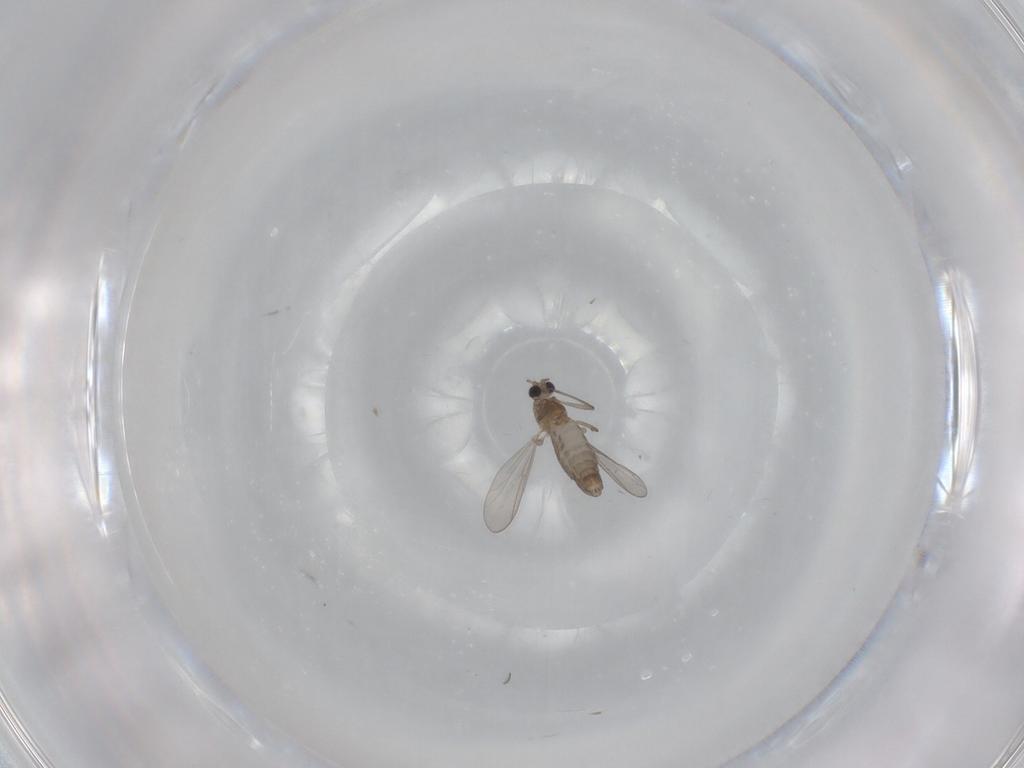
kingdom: Animalia
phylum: Arthropoda
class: Insecta
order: Diptera
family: Chironomidae
